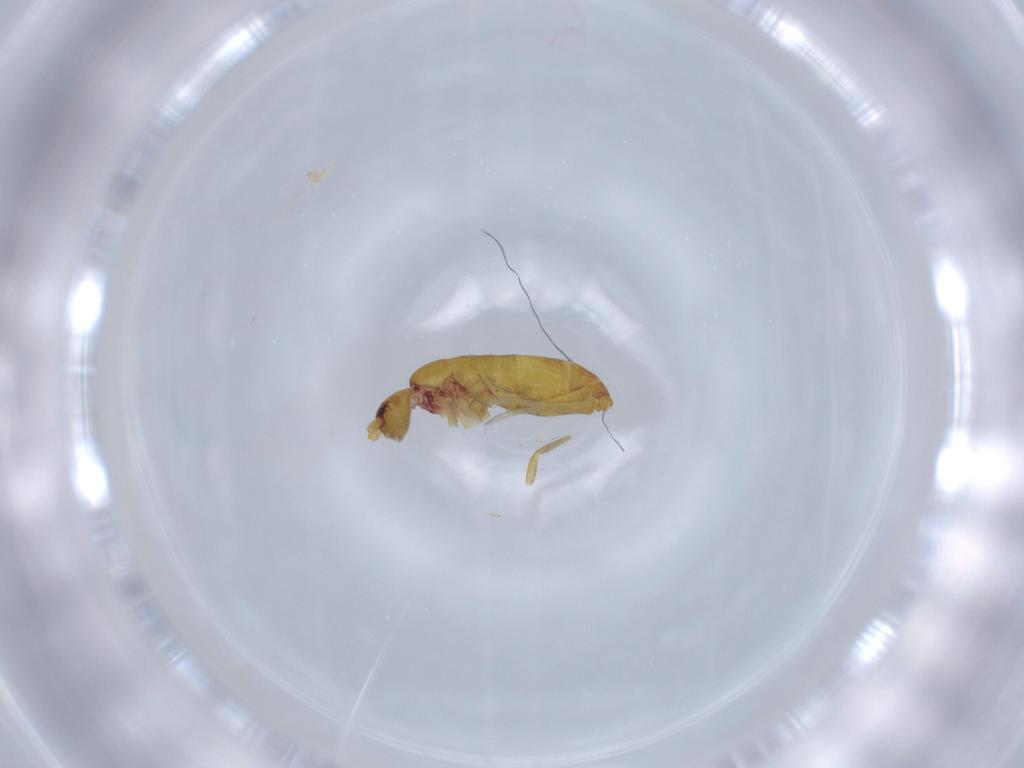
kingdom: Animalia
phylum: Arthropoda
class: Collembola
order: Entomobryomorpha
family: Tomoceridae
